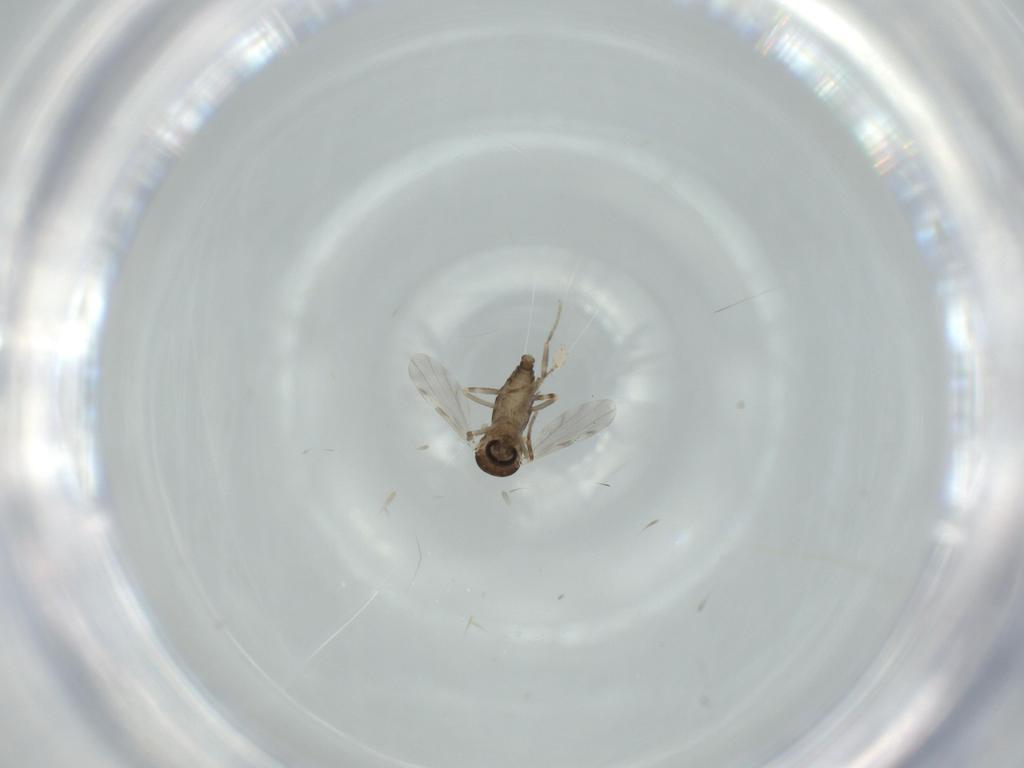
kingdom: Animalia
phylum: Arthropoda
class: Insecta
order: Diptera
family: Ceratopogonidae
